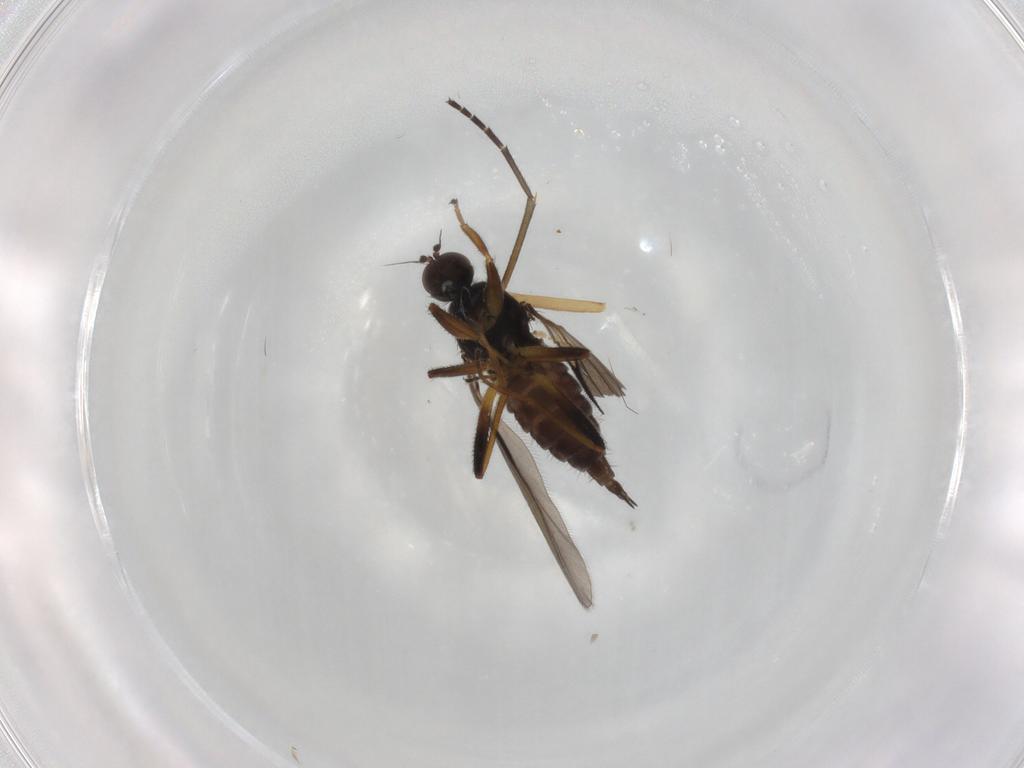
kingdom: Animalia
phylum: Arthropoda
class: Insecta
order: Diptera
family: Hybotidae
